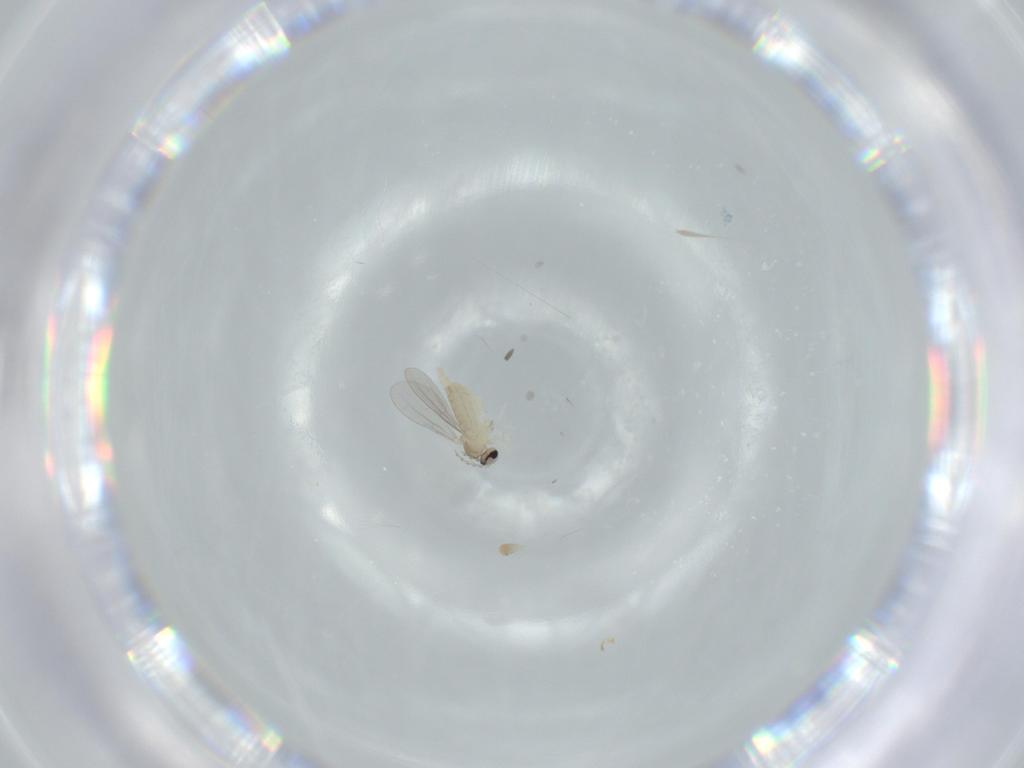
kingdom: Animalia
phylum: Arthropoda
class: Insecta
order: Diptera
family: Cecidomyiidae
